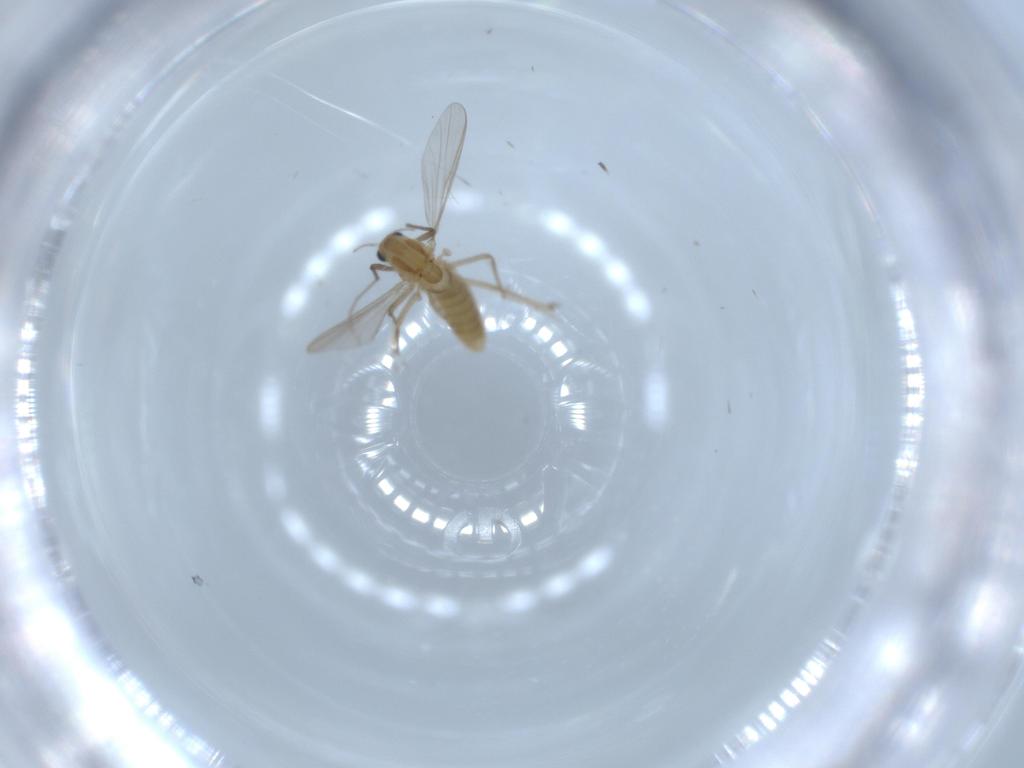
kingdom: Animalia
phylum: Arthropoda
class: Insecta
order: Diptera
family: Chironomidae
